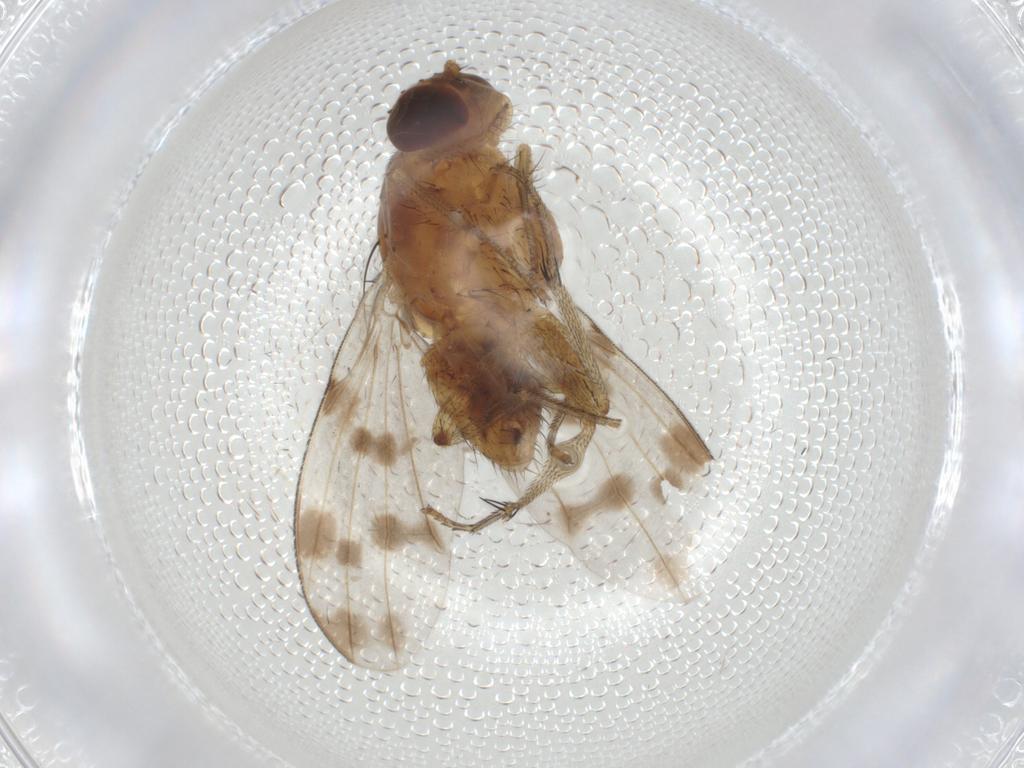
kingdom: Animalia
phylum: Arthropoda
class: Insecta
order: Diptera
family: Lauxaniidae
